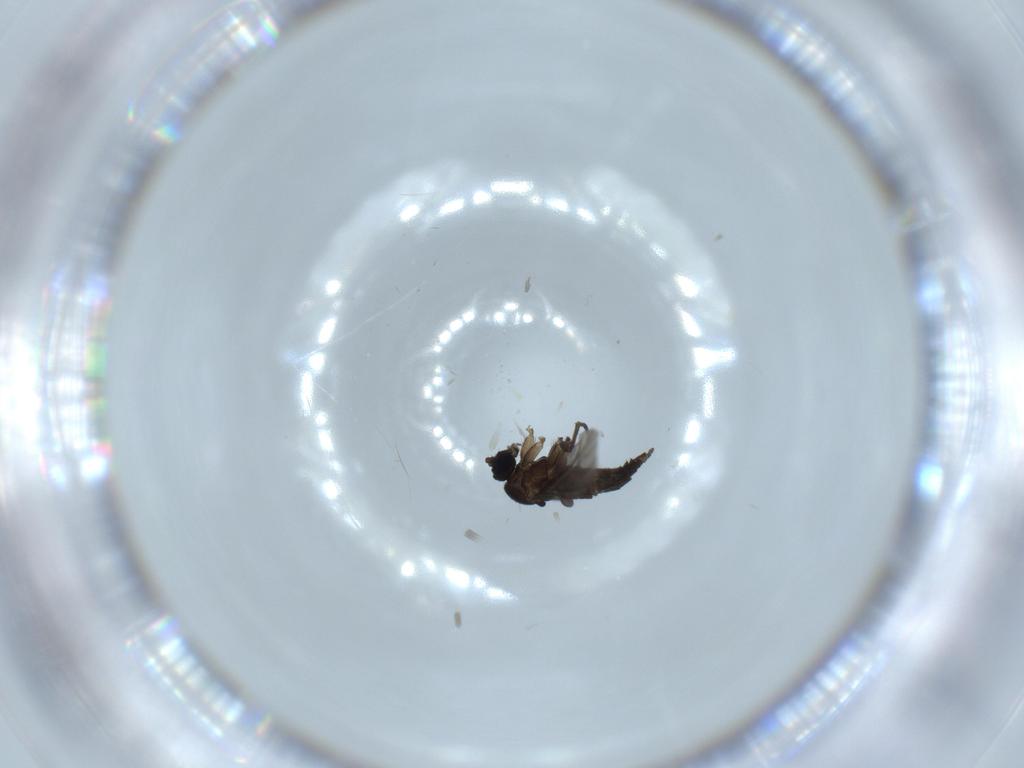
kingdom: Animalia
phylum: Arthropoda
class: Insecta
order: Diptera
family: Sciaridae
